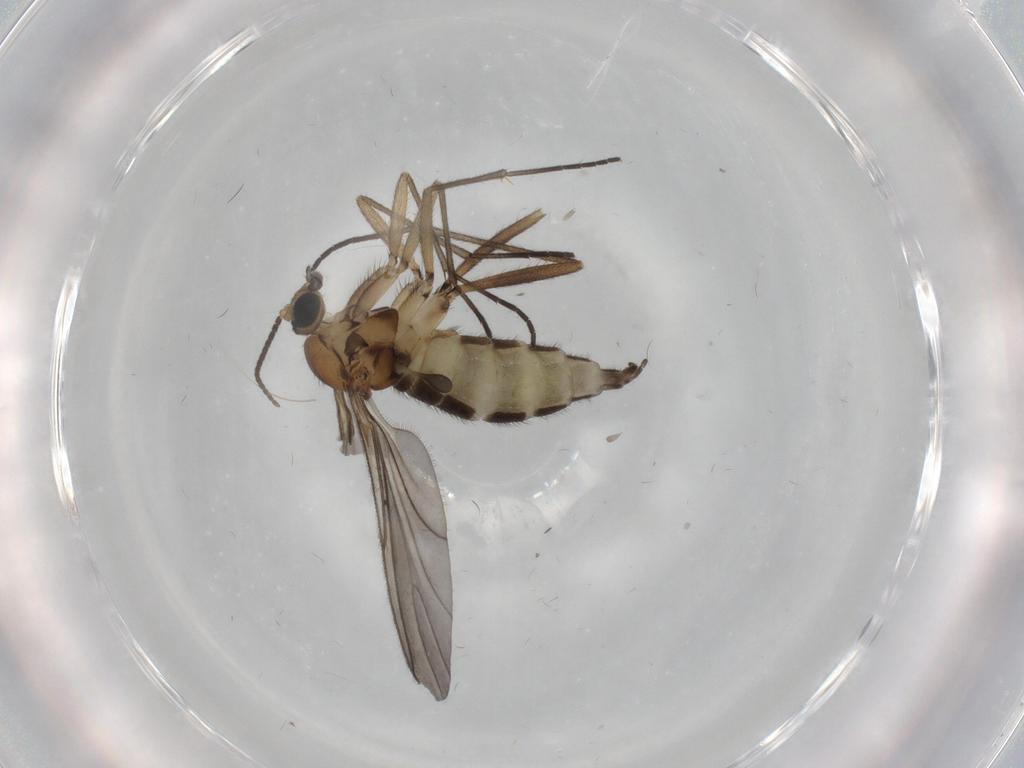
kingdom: Animalia
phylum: Arthropoda
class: Insecta
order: Diptera
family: Sciaridae
